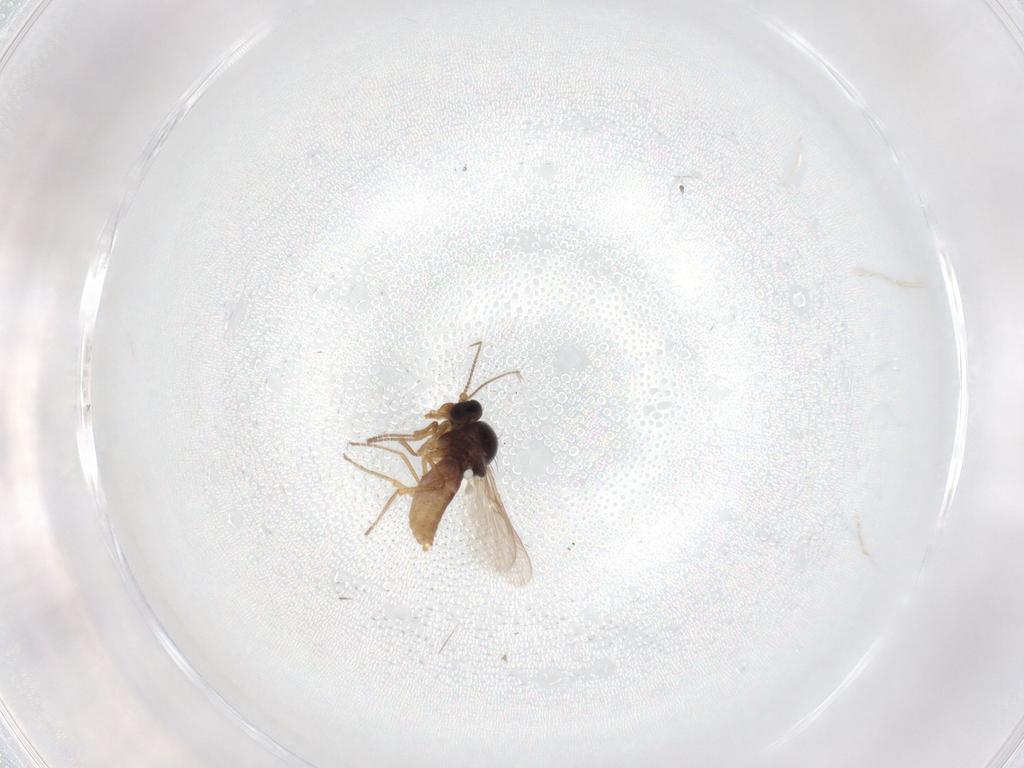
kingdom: Animalia
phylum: Arthropoda
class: Insecta
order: Diptera
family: Ceratopogonidae
